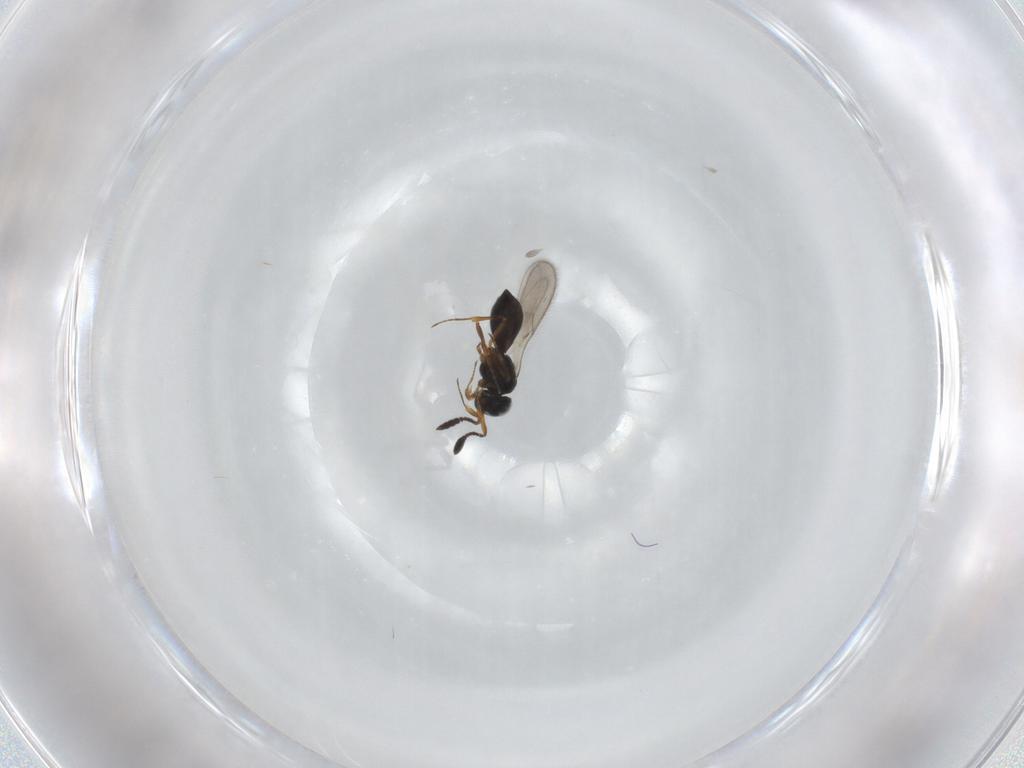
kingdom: Animalia
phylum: Arthropoda
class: Insecta
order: Hymenoptera
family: Scelionidae
